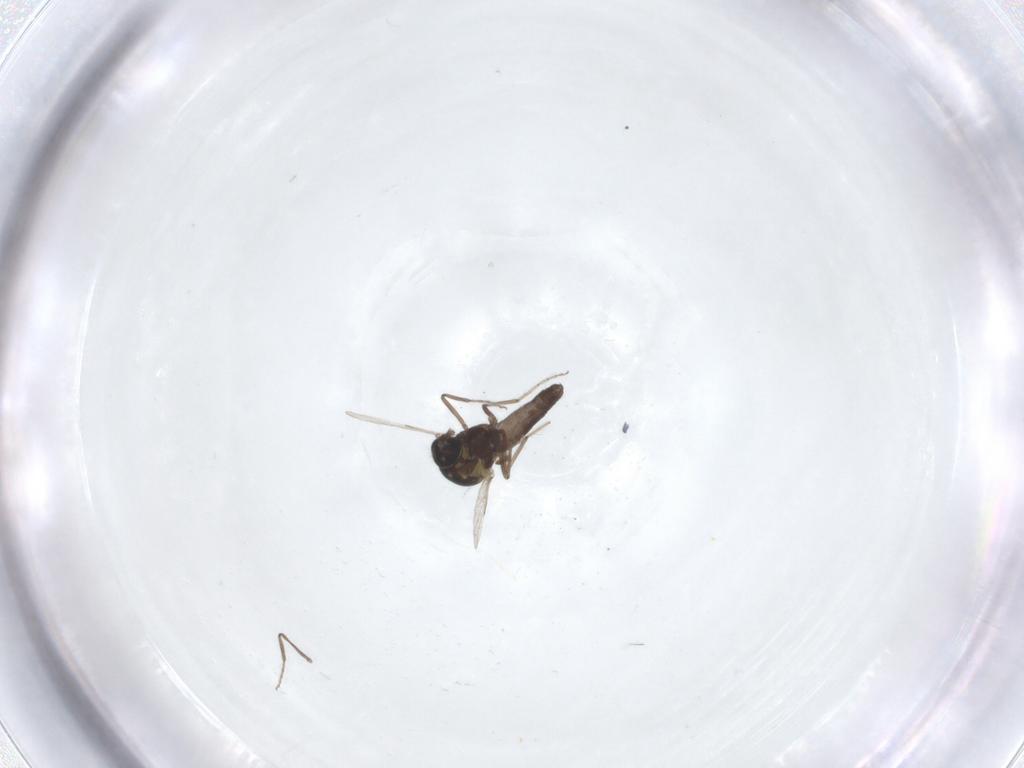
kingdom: Animalia
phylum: Arthropoda
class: Insecta
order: Diptera
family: Ceratopogonidae
